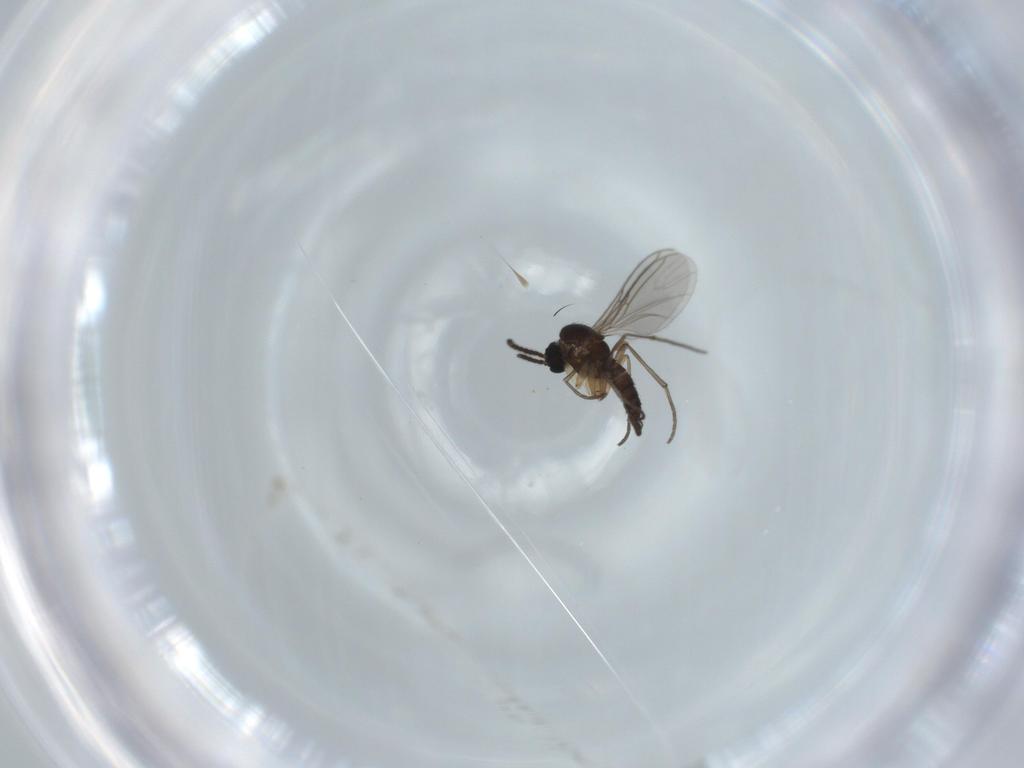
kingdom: Animalia
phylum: Arthropoda
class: Insecta
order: Diptera
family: Sciaridae
